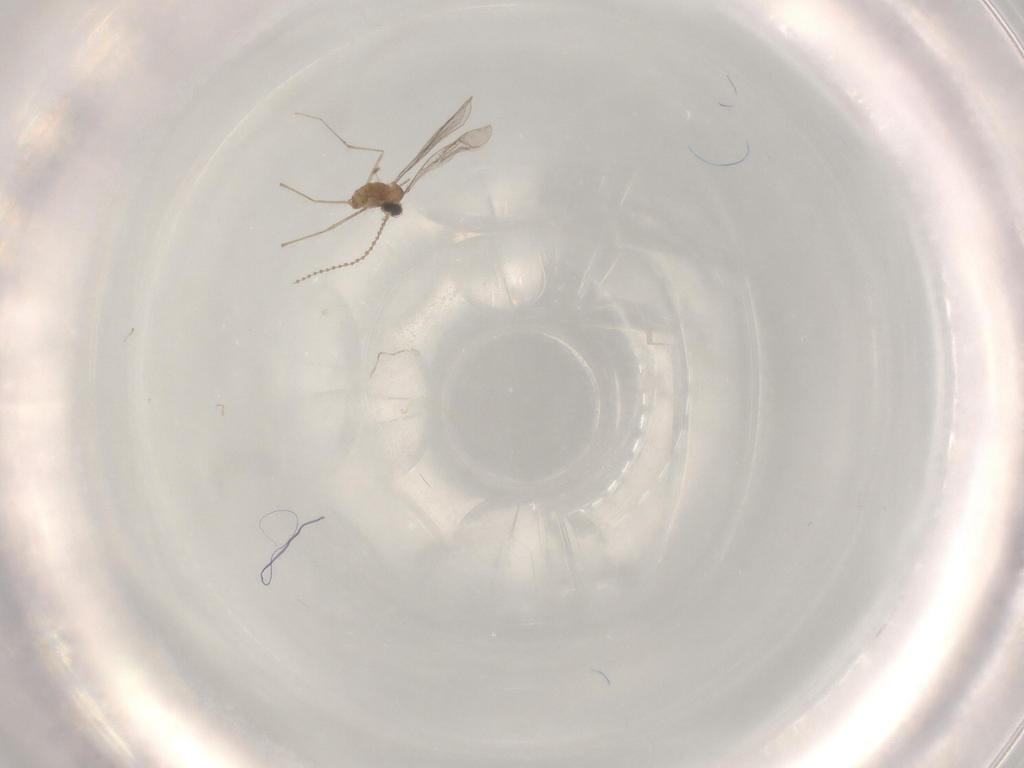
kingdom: Animalia
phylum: Arthropoda
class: Insecta
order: Diptera
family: Cecidomyiidae
